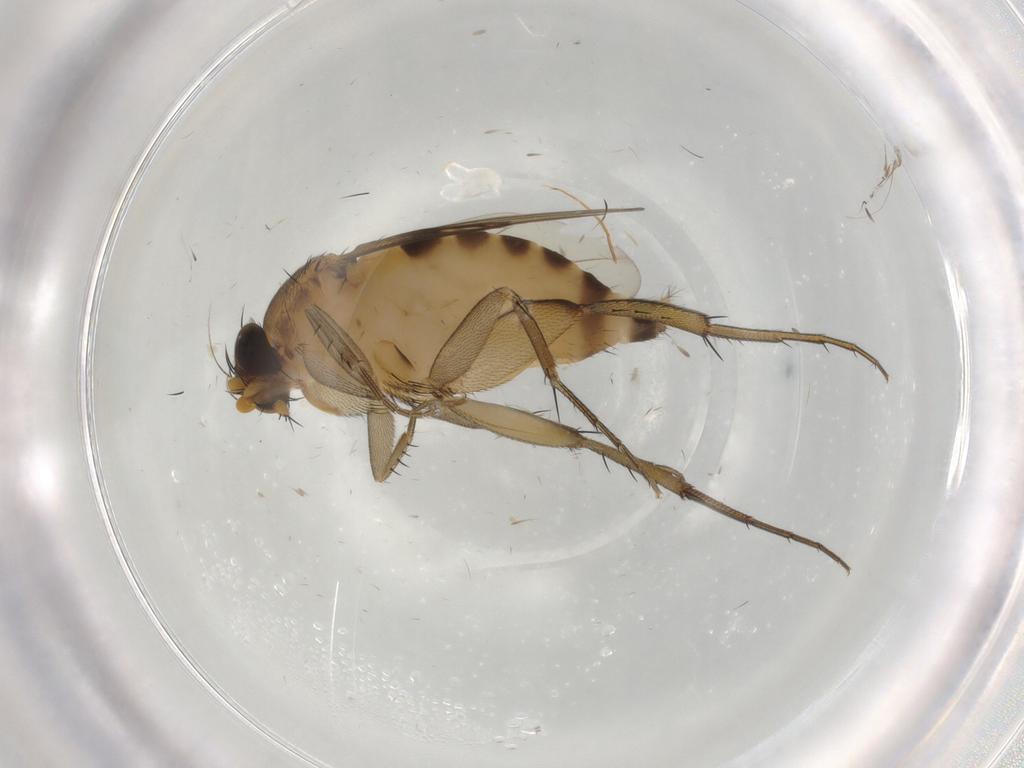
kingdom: Animalia
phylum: Arthropoda
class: Insecta
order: Diptera
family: Phoridae
